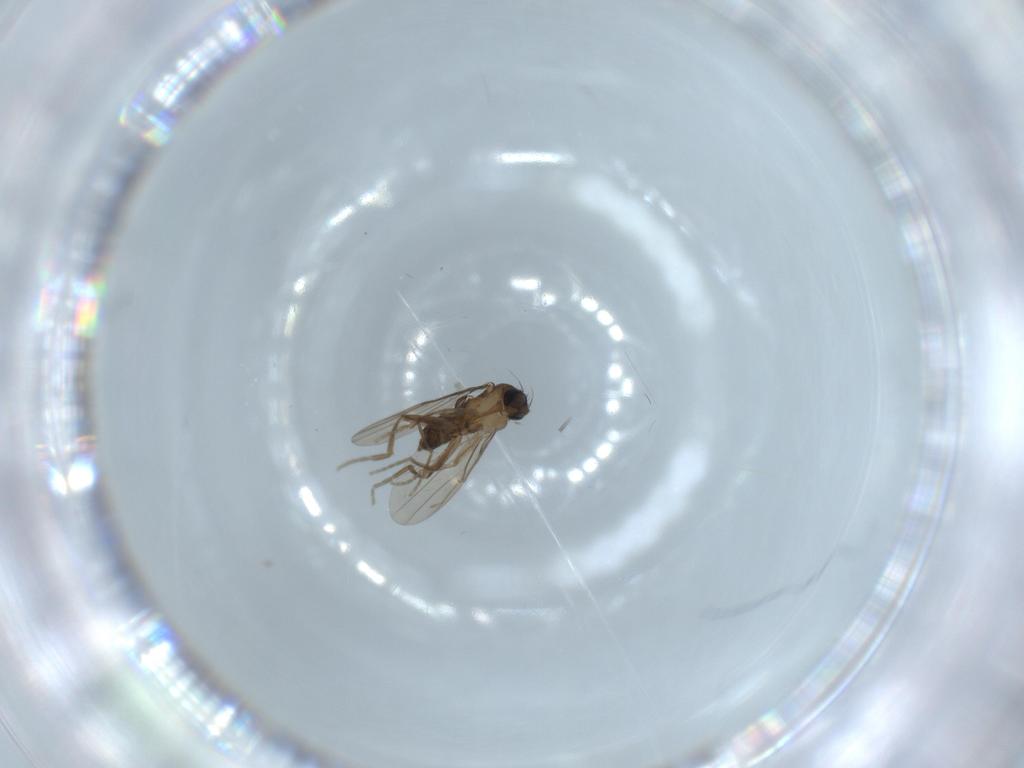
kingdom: Animalia
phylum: Arthropoda
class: Insecta
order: Diptera
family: Phoridae
